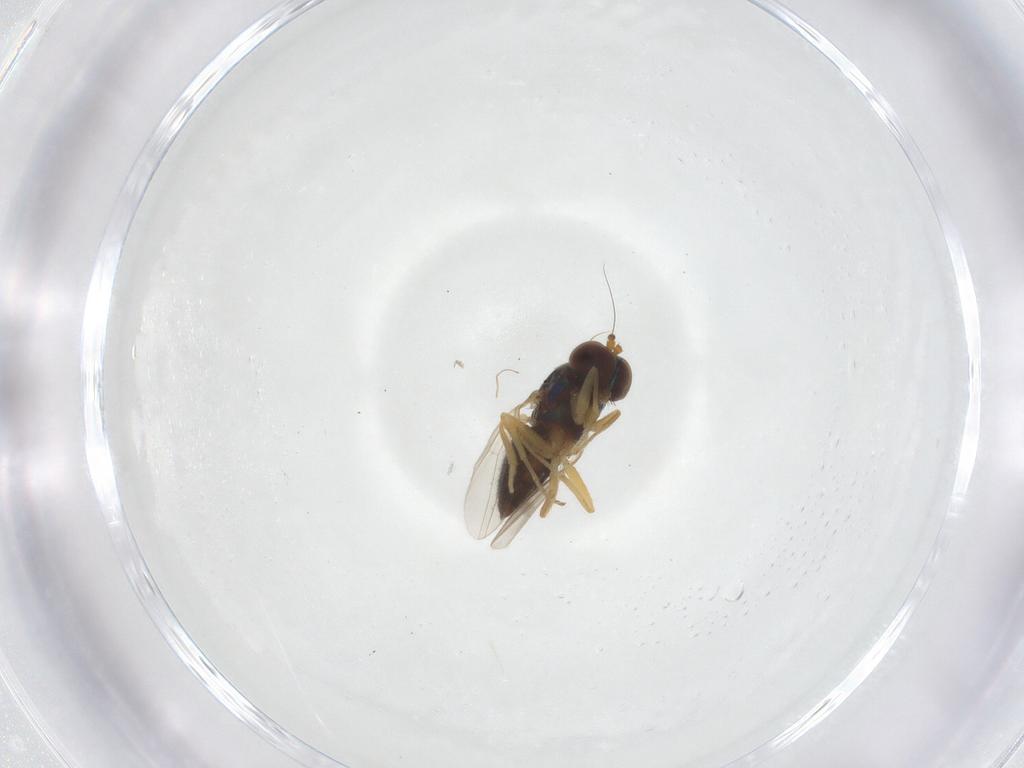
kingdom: Animalia
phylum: Arthropoda
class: Insecta
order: Diptera
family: Dolichopodidae
